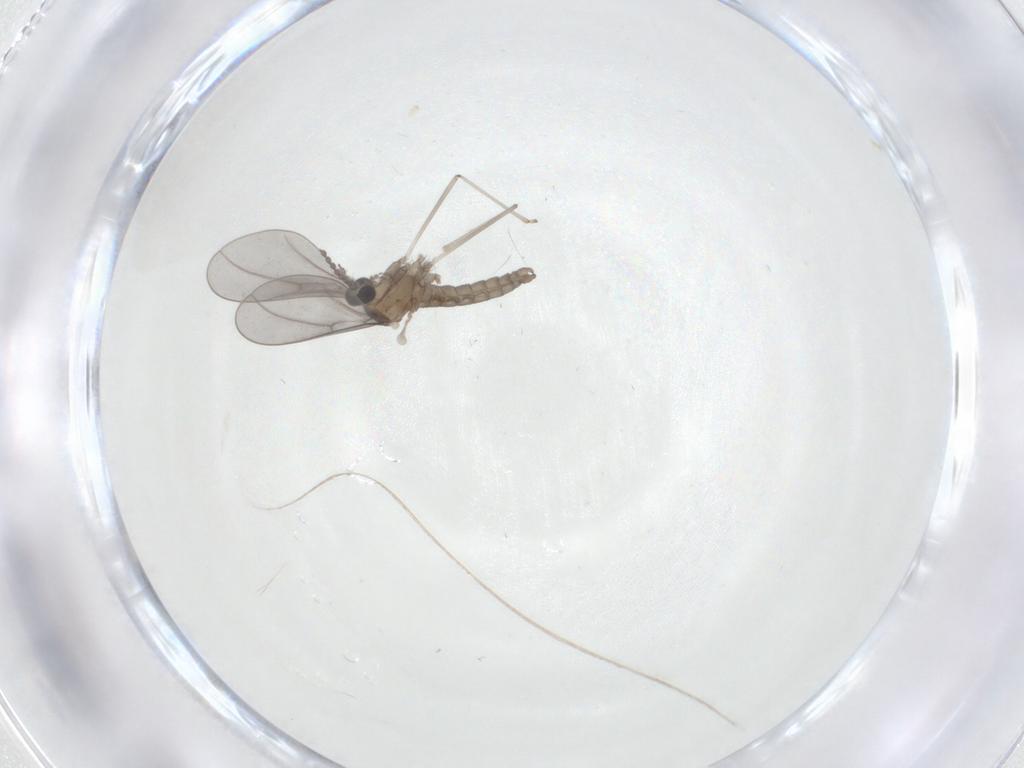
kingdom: Animalia
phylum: Arthropoda
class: Insecta
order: Diptera
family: Cecidomyiidae
